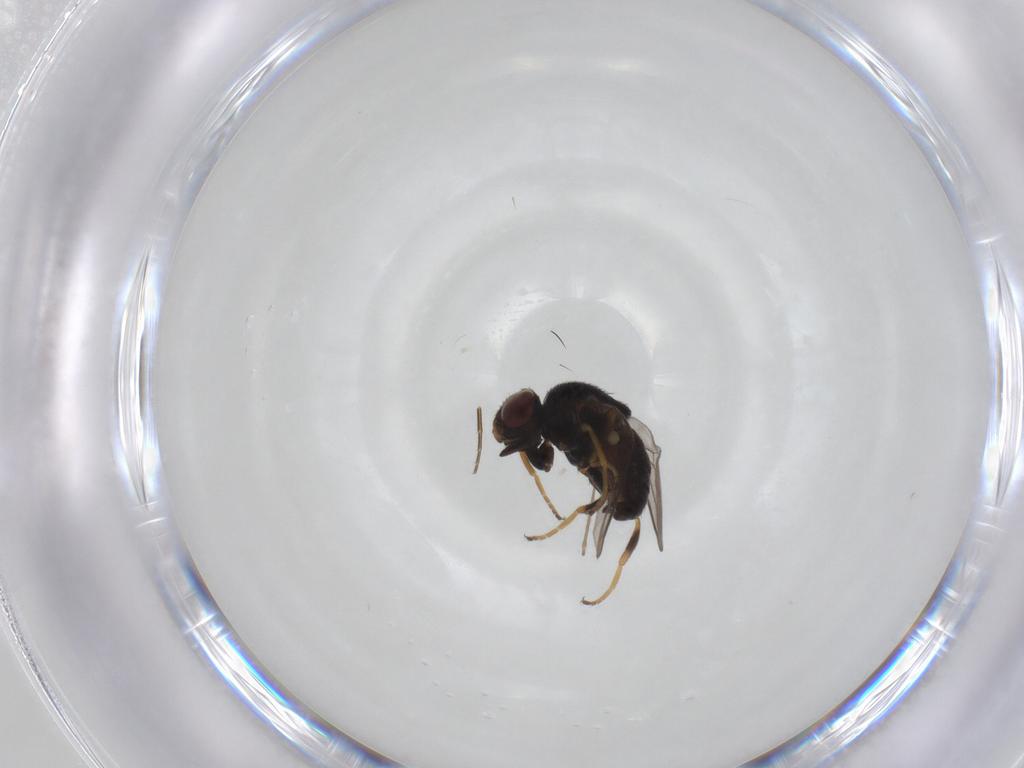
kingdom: Animalia
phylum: Arthropoda
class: Insecta
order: Diptera
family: Chloropidae
